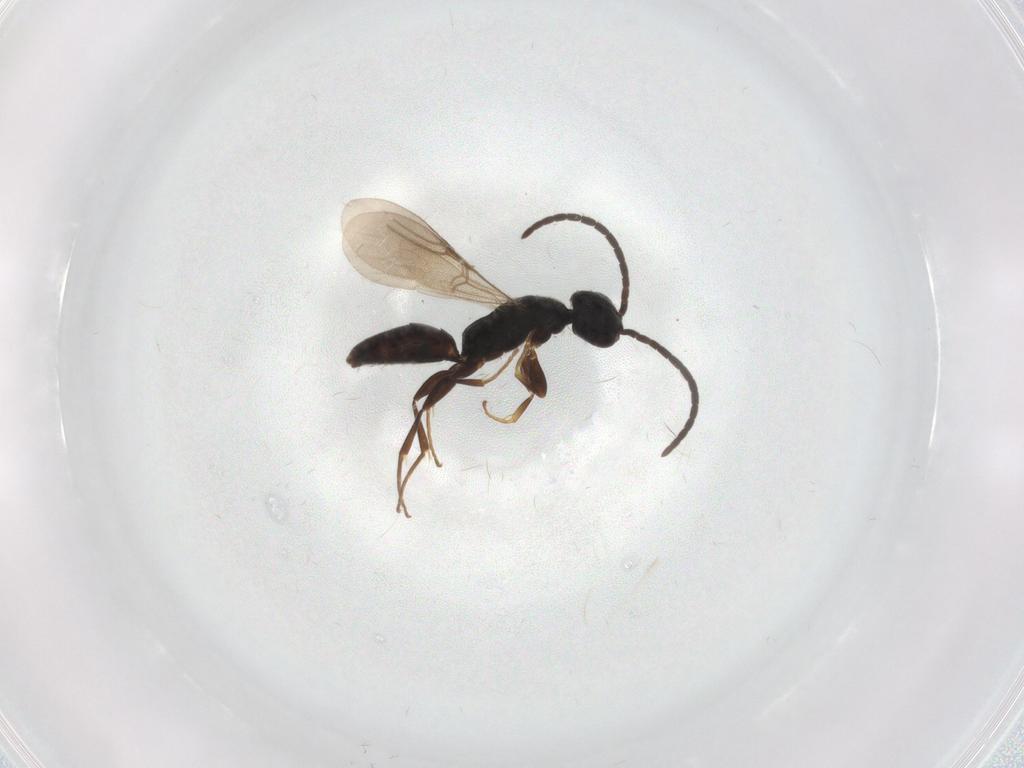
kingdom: Animalia
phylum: Arthropoda
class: Insecta
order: Hymenoptera
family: Bethylidae
